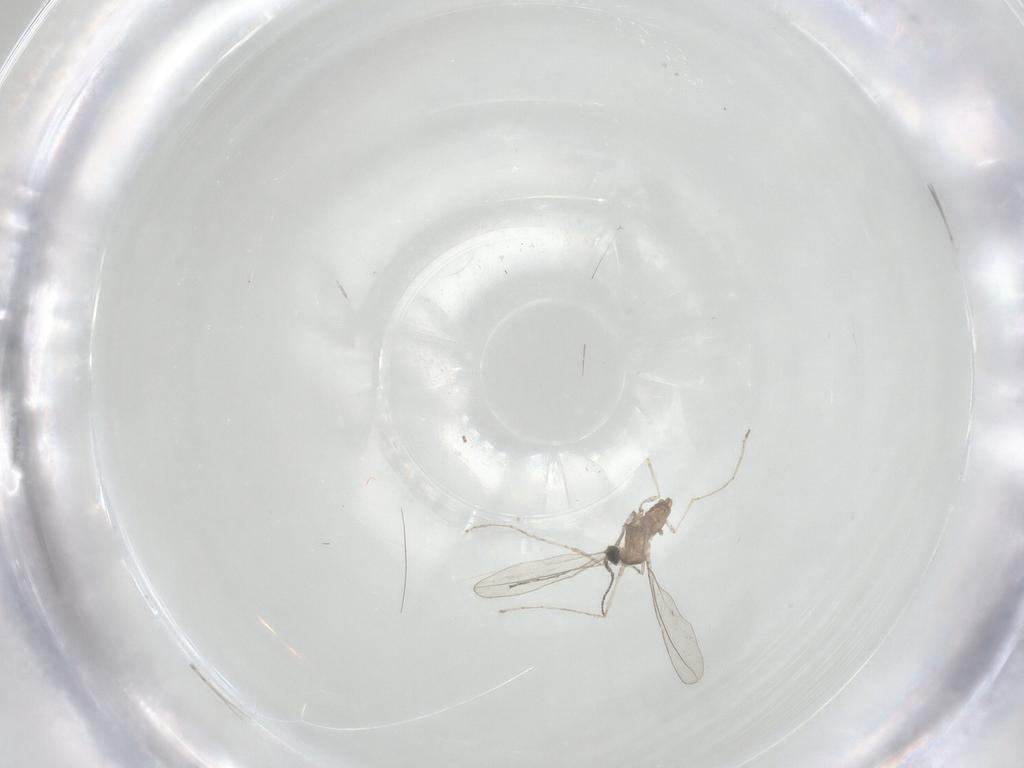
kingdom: Animalia
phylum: Arthropoda
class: Insecta
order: Diptera
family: Cecidomyiidae
